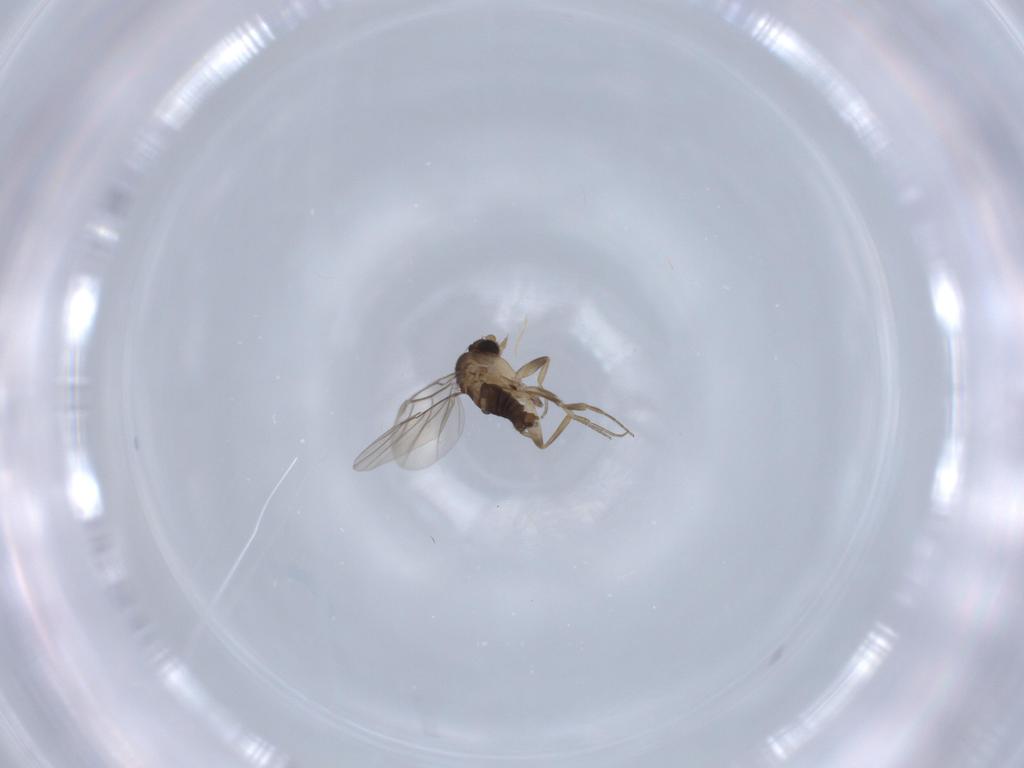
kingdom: Animalia
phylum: Arthropoda
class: Insecta
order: Diptera
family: Phoridae
